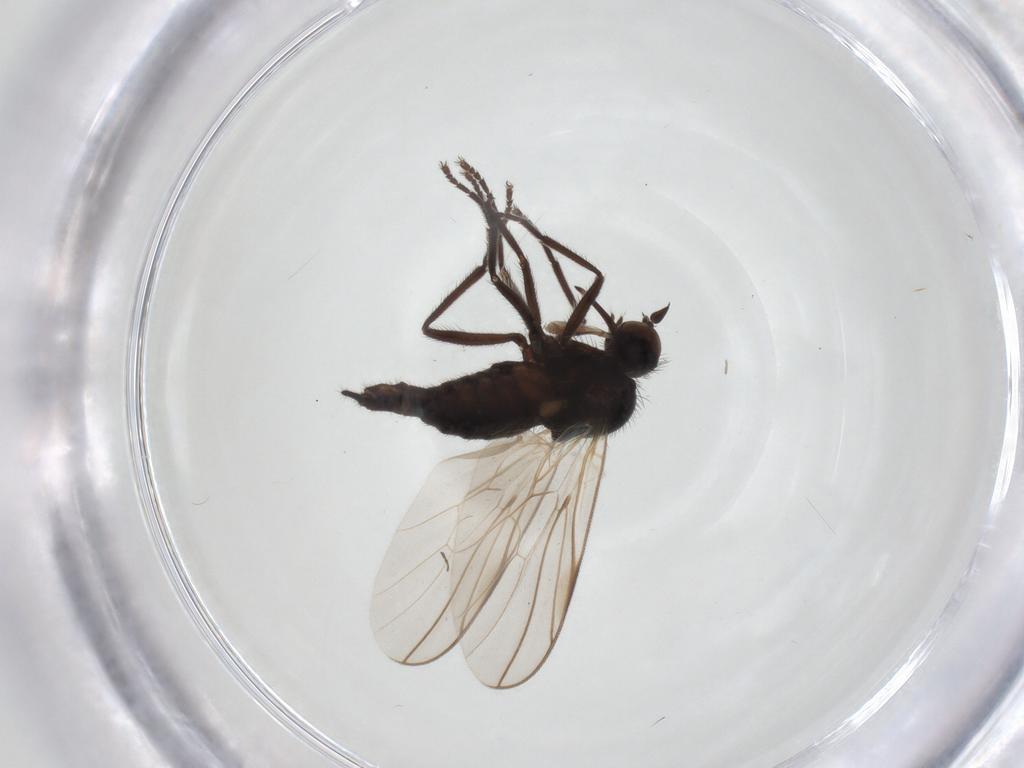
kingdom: Animalia
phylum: Arthropoda
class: Insecta
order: Diptera
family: Empididae
